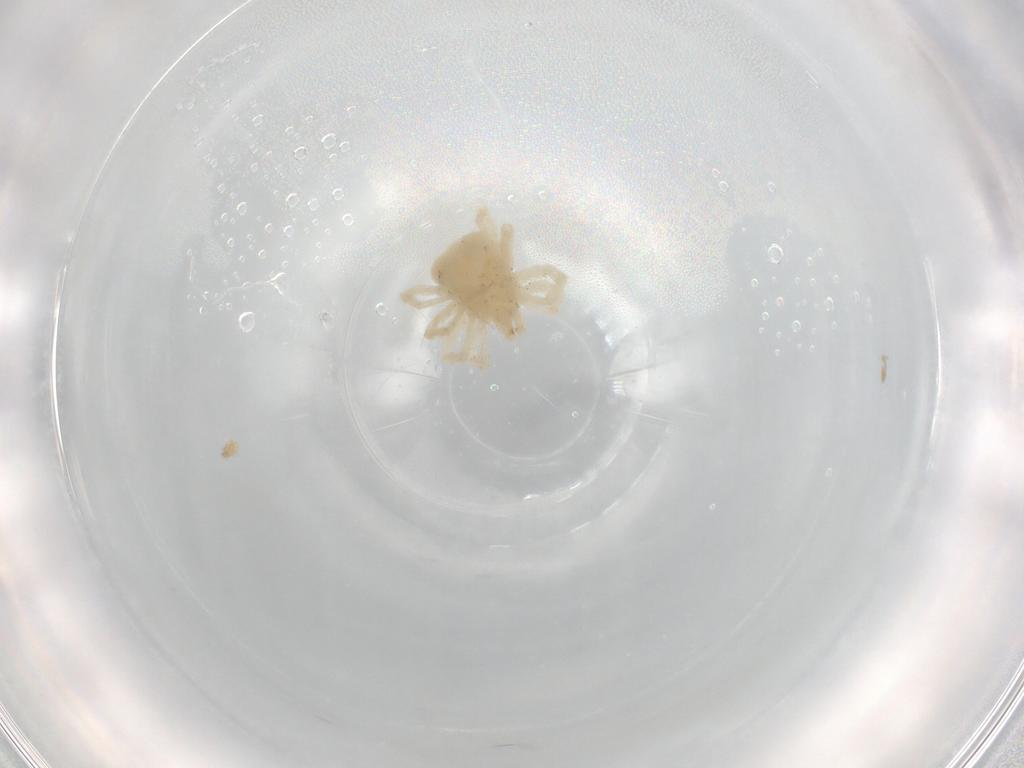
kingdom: Animalia
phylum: Arthropoda
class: Arachnida
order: Trombidiformes
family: Anystidae
